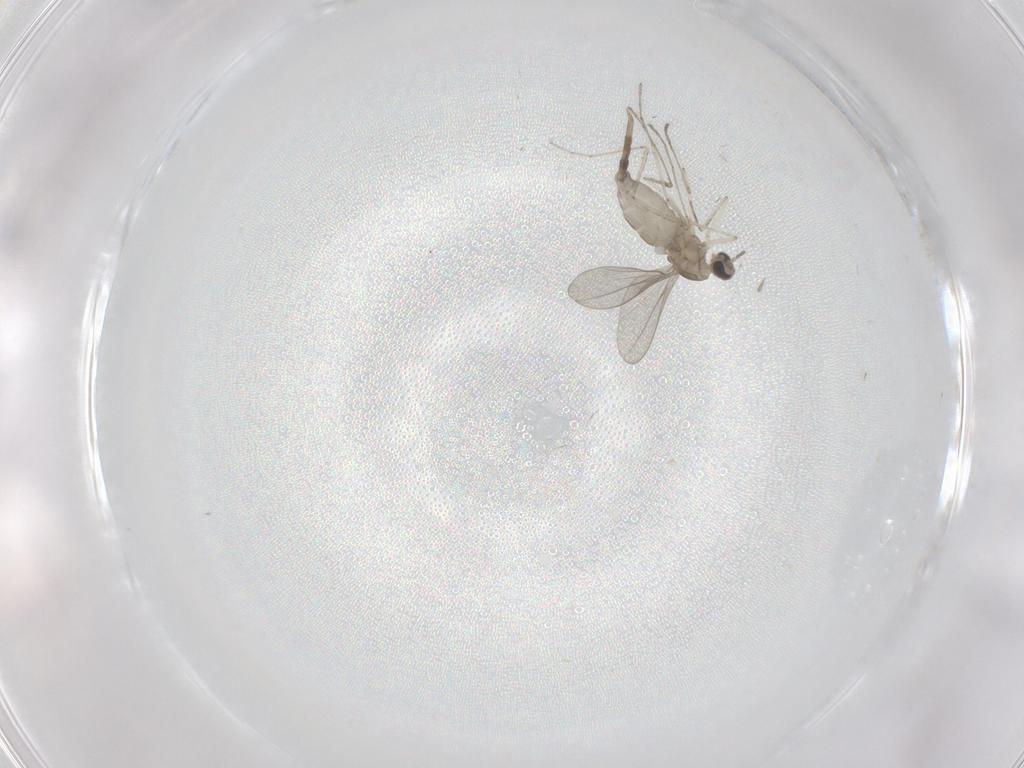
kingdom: Animalia
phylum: Arthropoda
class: Insecta
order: Diptera
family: Cecidomyiidae
